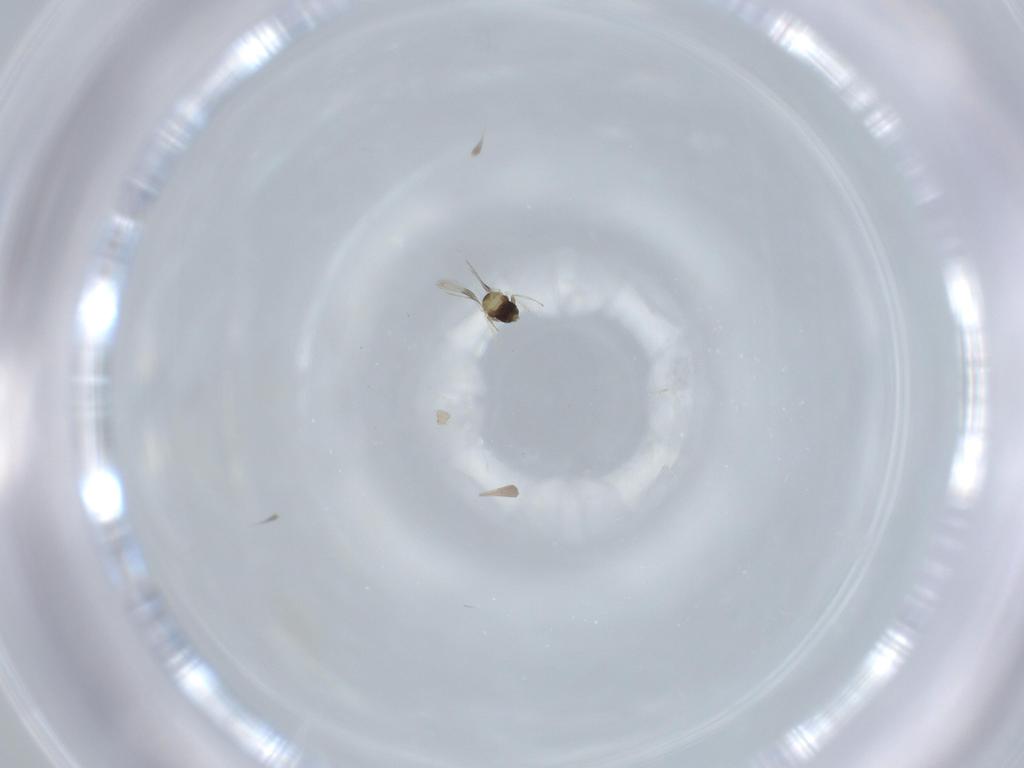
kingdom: Animalia
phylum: Arthropoda
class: Insecta
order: Hymenoptera
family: Aphelinidae
